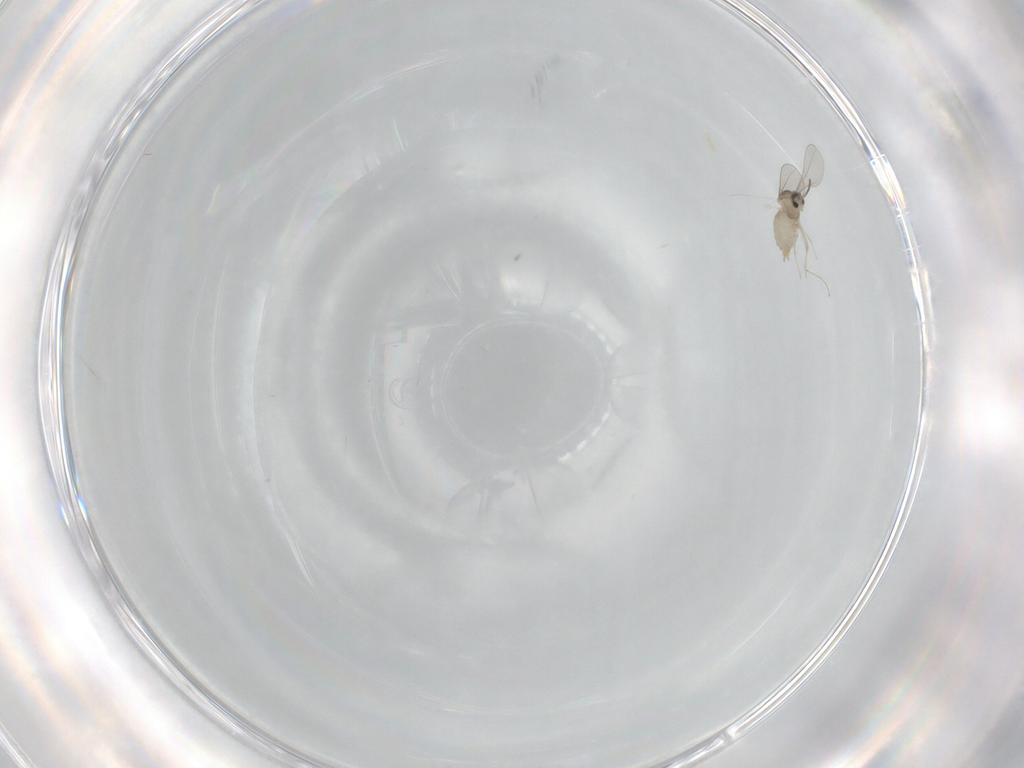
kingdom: Animalia
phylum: Arthropoda
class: Insecta
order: Diptera
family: Cecidomyiidae
